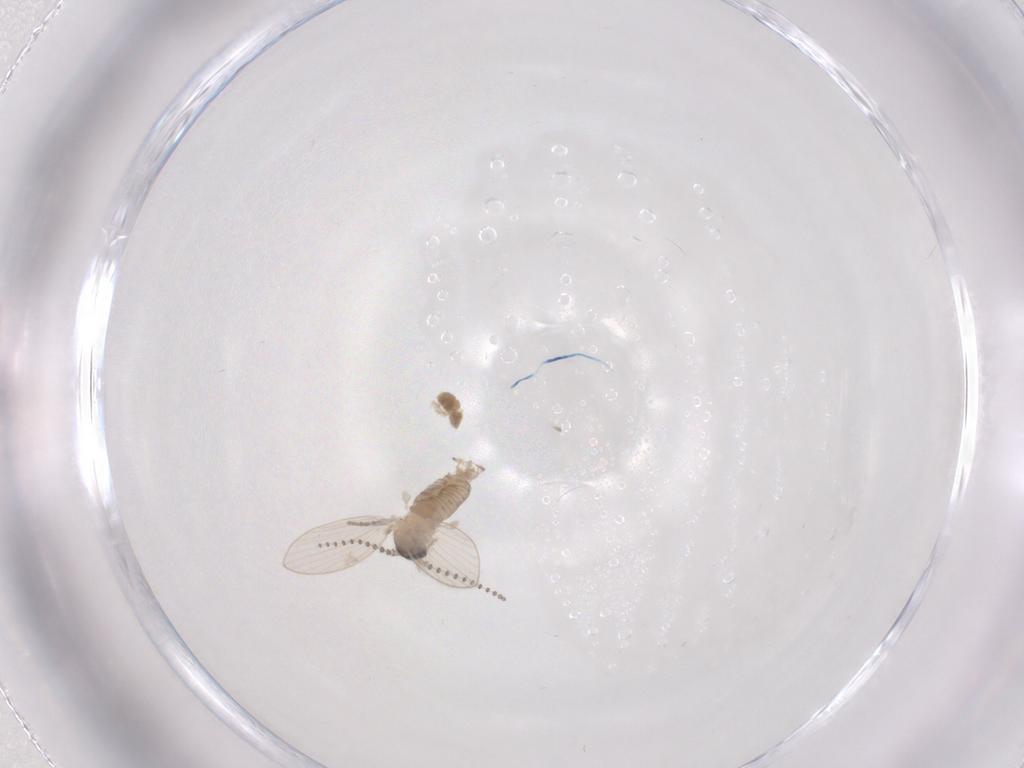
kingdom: Animalia
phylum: Arthropoda
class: Insecta
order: Diptera
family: Psychodidae
